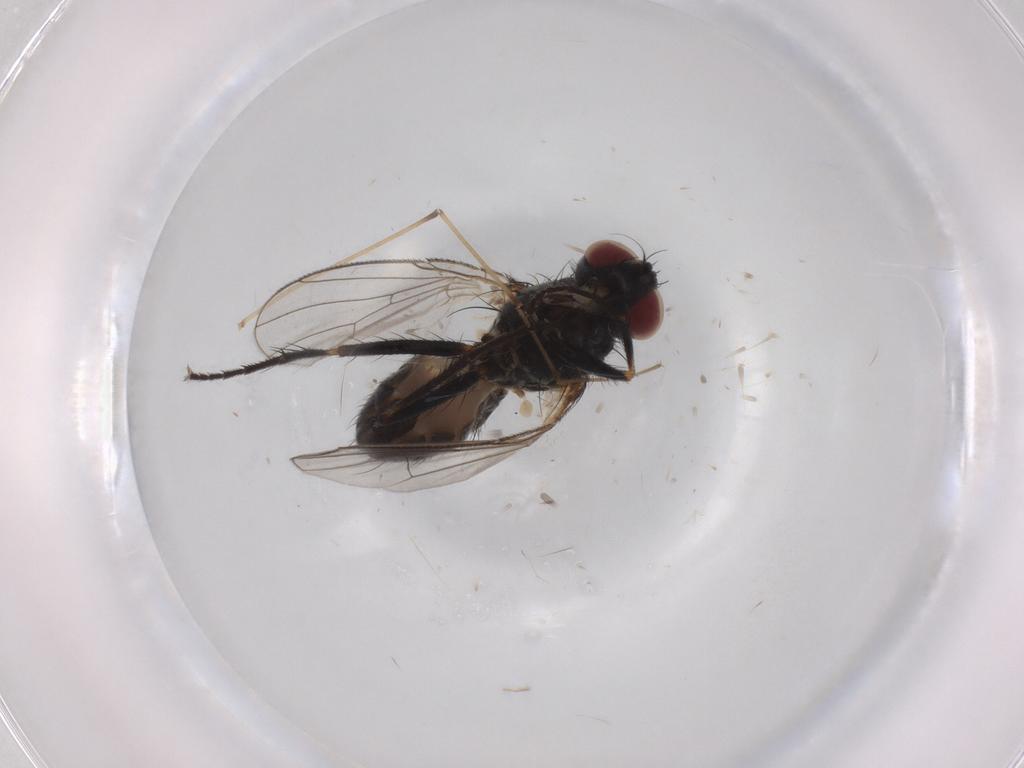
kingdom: Animalia
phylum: Arthropoda
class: Insecta
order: Diptera
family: Muscidae
